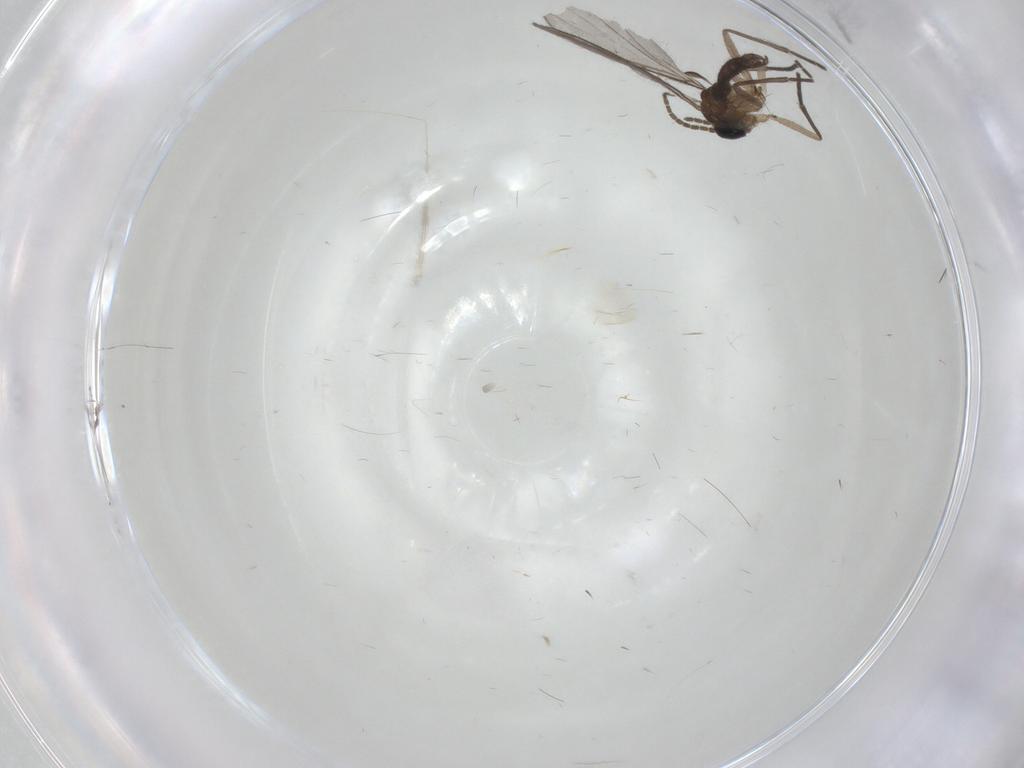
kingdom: Animalia
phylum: Arthropoda
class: Insecta
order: Diptera
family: Sciaridae
